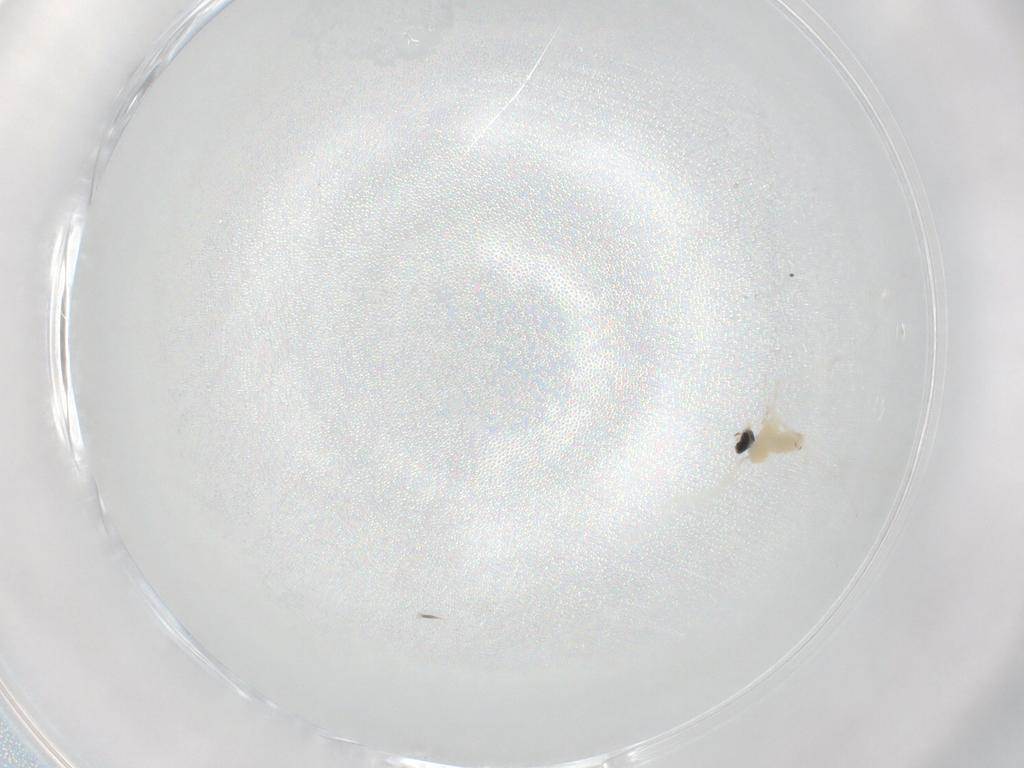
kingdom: Animalia
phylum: Arthropoda
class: Insecta
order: Diptera
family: Cecidomyiidae
